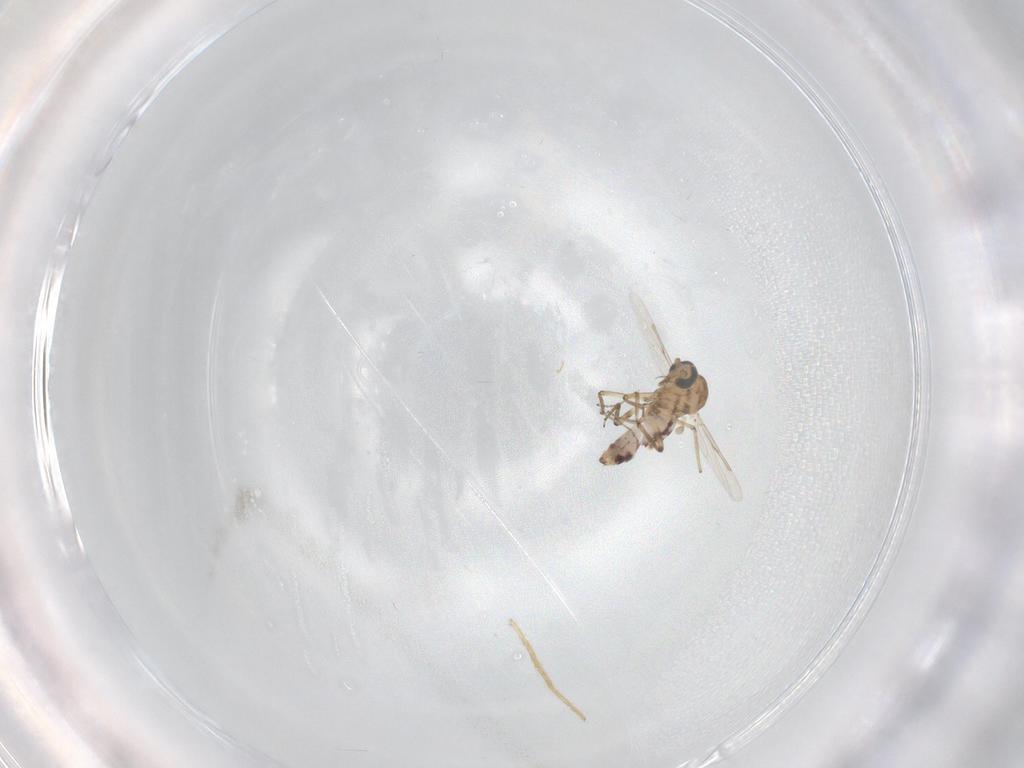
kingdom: Animalia
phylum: Arthropoda
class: Insecta
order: Diptera
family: Ceratopogonidae
